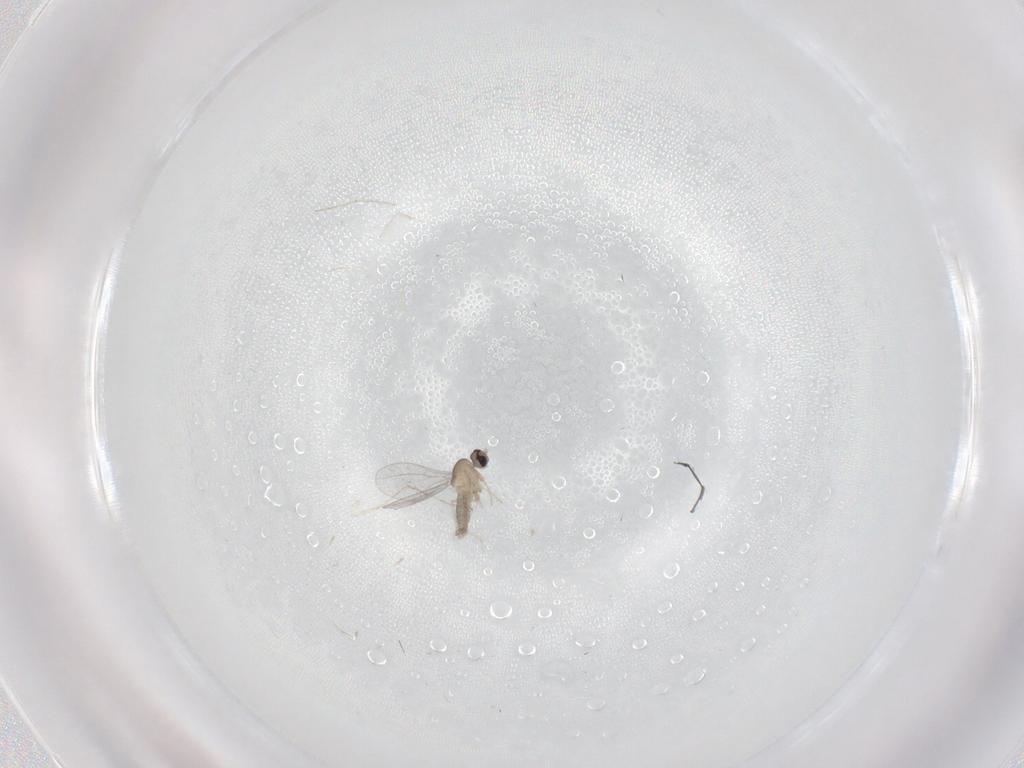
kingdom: Animalia
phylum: Arthropoda
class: Insecta
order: Diptera
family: Cecidomyiidae
